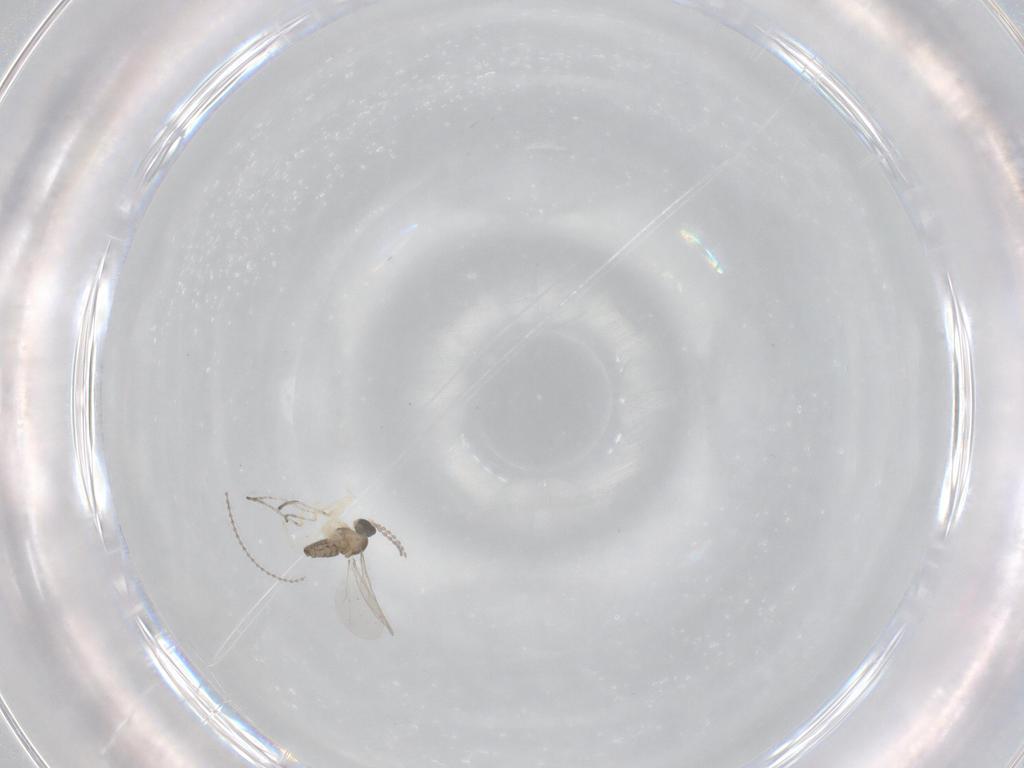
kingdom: Animalia
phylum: Arthropoda
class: Insecta
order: Diptera
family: Cecidomyiidae
